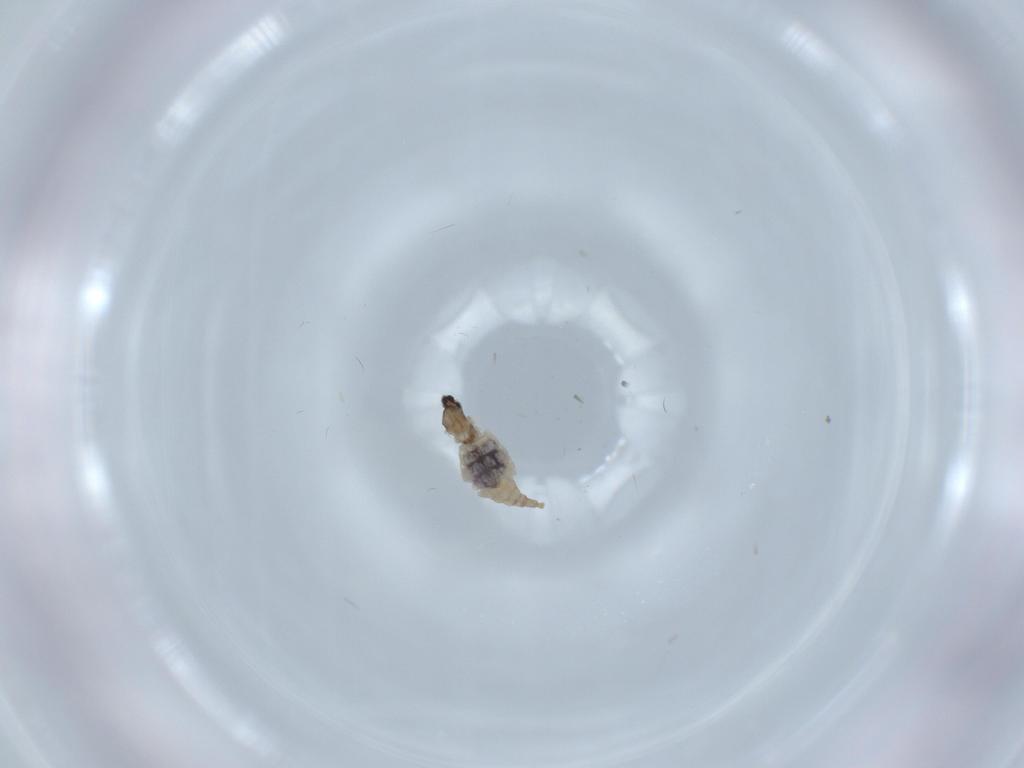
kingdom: Animalia
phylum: Arthropoda
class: Insecta
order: Diptera
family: Cecidomyiidae
